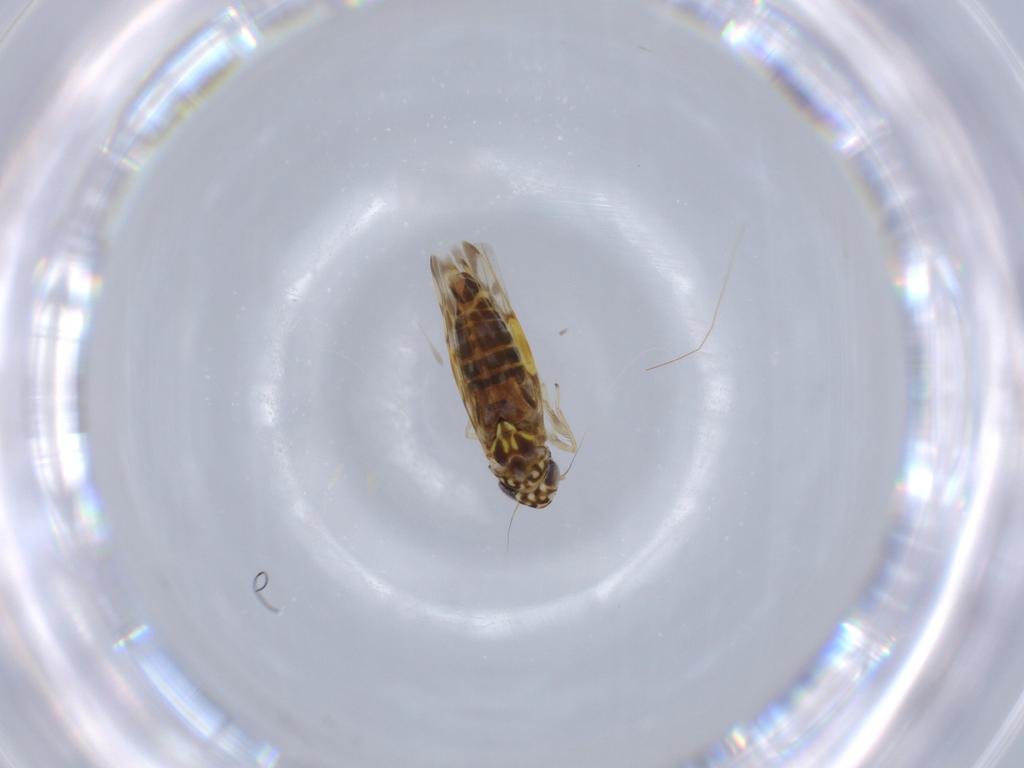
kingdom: Animalia
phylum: Arthropoda
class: Insecta
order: Hemiptera
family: Cicadellidae
